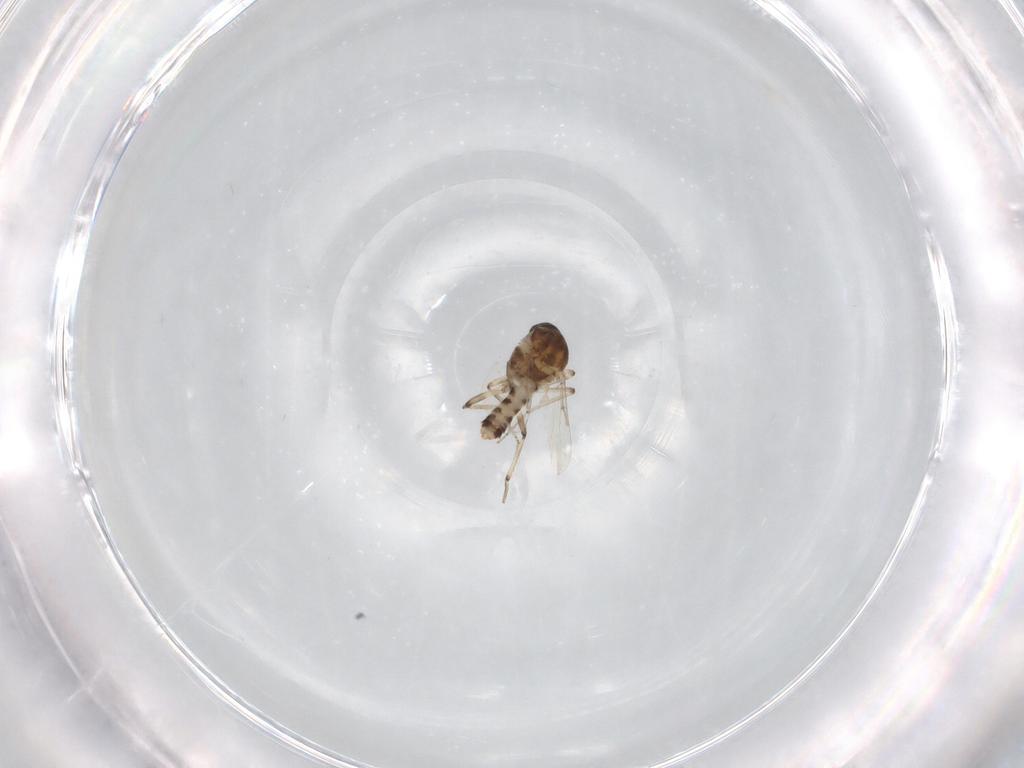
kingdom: Animalia
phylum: Arthropoda
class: Insecta
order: Diptera
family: Ceratopogonidae
